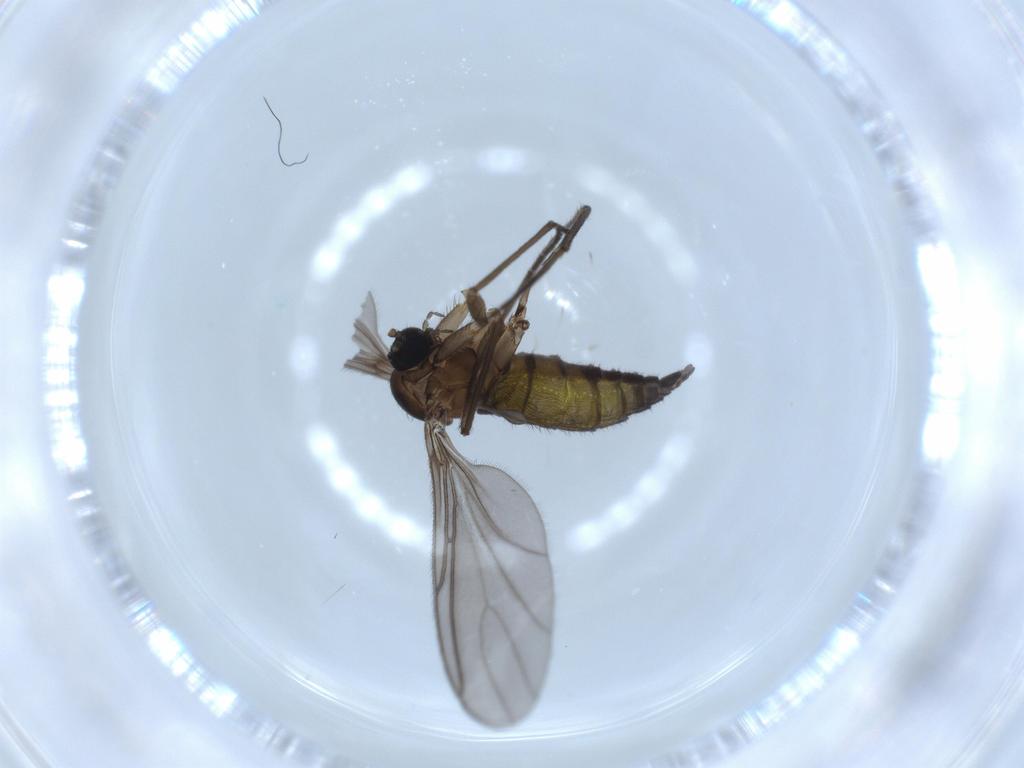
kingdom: Animalia
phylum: Arthropoda
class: Insecta
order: Diptera
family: Sciaridae
